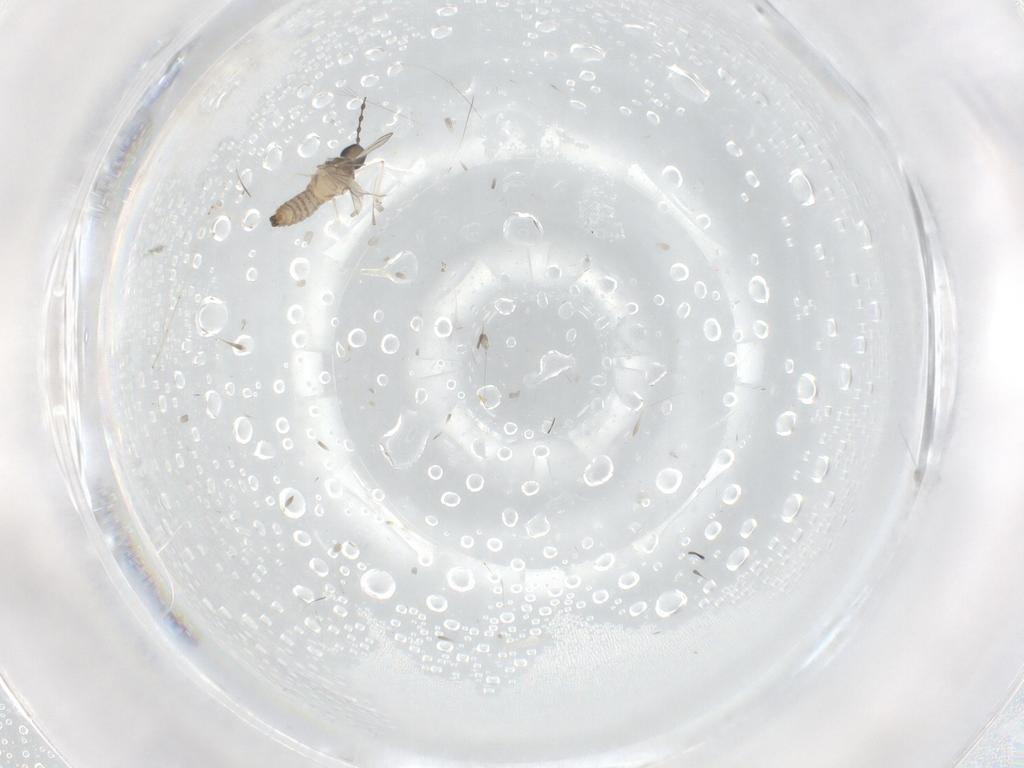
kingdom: Animalia
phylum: Arthropoda
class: Insecta
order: Diptera
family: Cecidomyiidae
